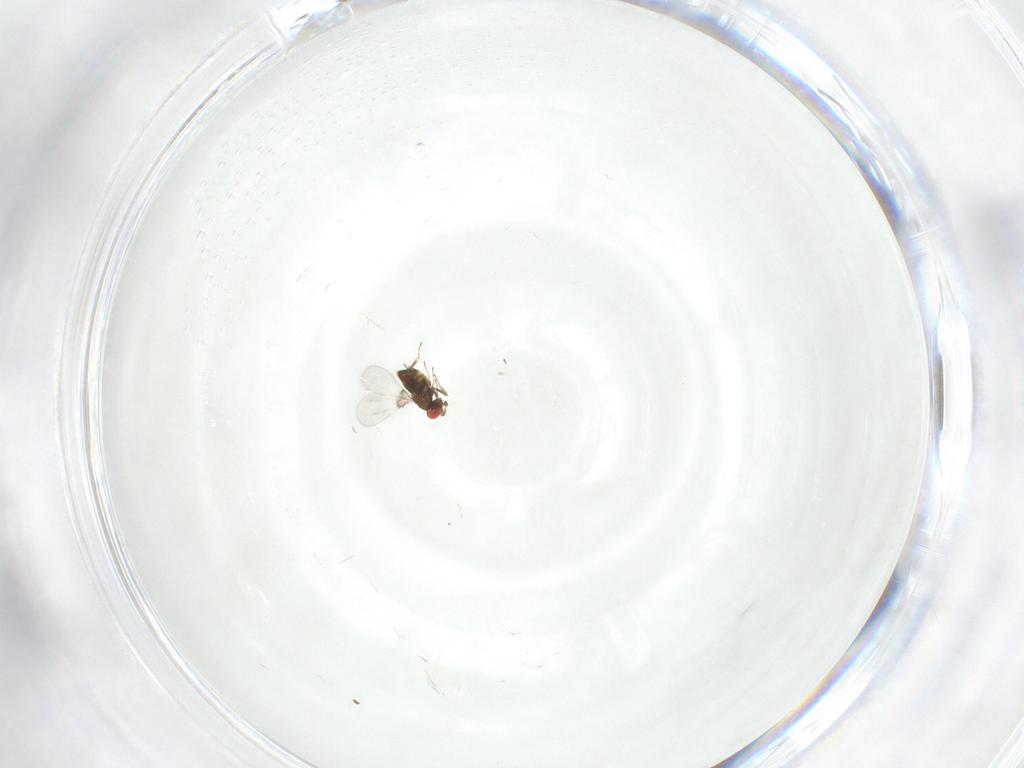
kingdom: Animalia
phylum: Arthropoda
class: Insecta
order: Hymenoptera
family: Trichogrammatidae
